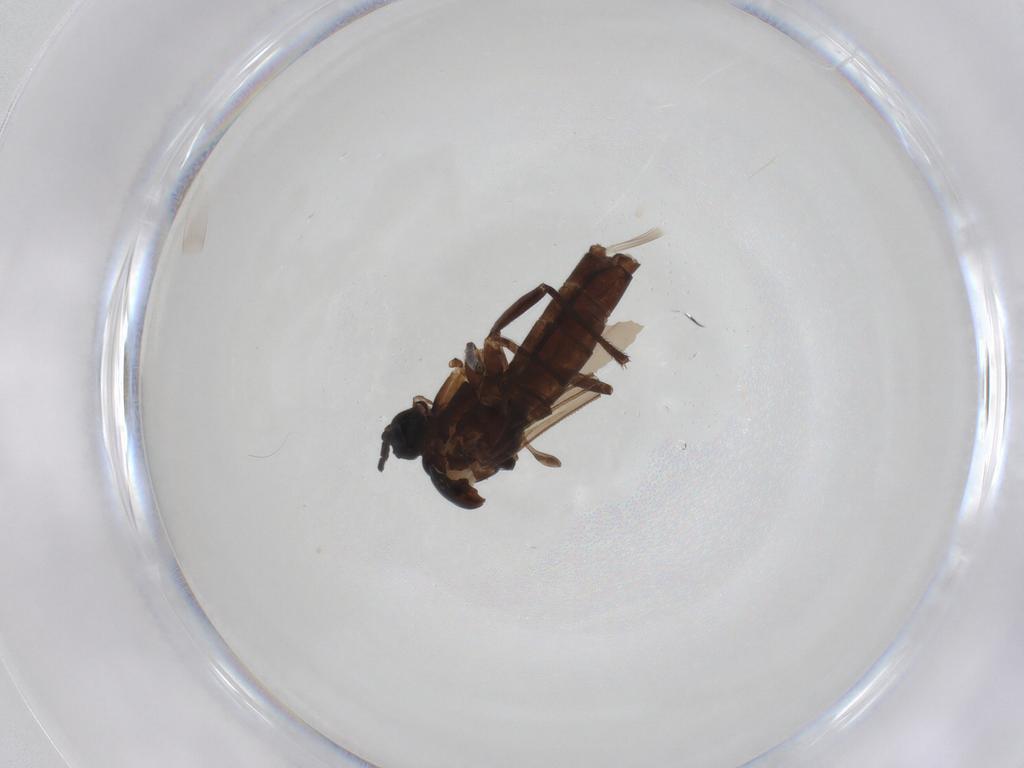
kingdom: Animalia
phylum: Arthropoda
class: Insecta
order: Diptera
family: Sciaridae
